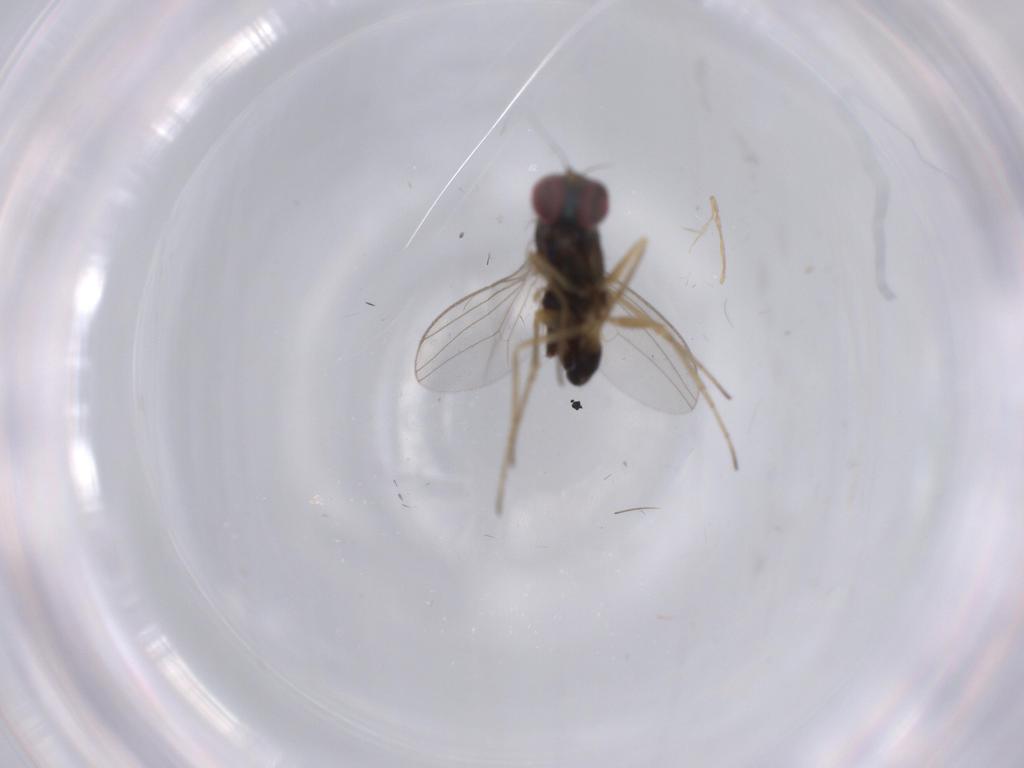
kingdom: Animalia
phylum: Arthropoda
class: Insecta
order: Diptera
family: Dolichopodidae
